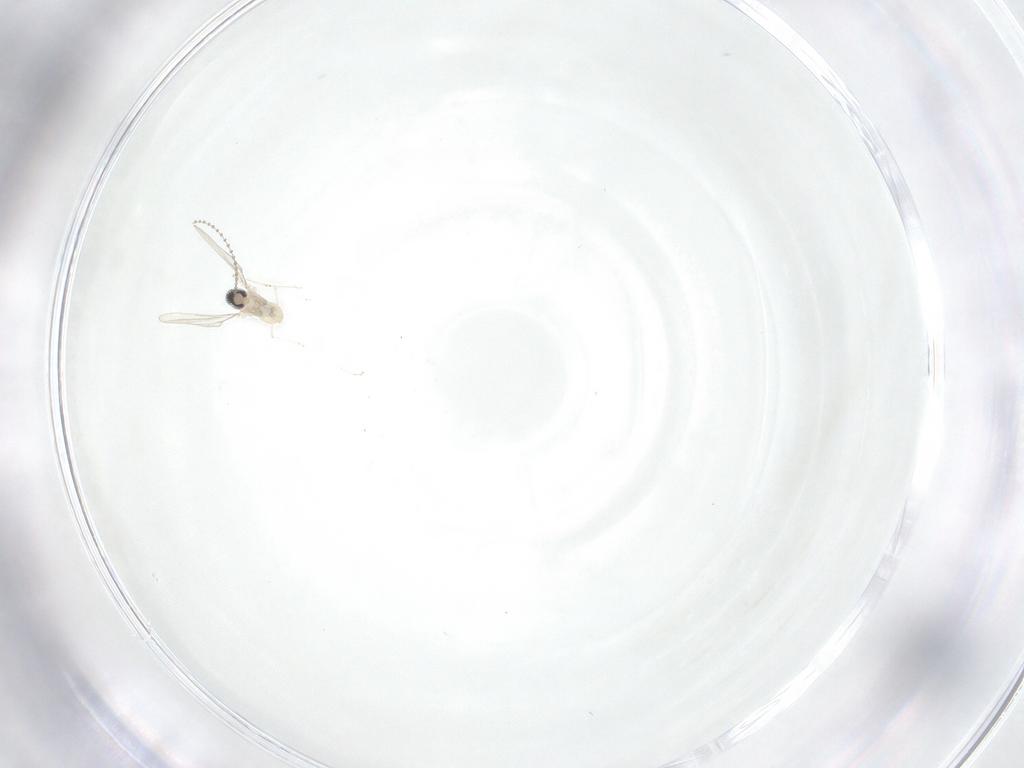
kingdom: Animalia
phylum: Arthropoda
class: Insecta
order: Diptera
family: Cecidomyiidae
